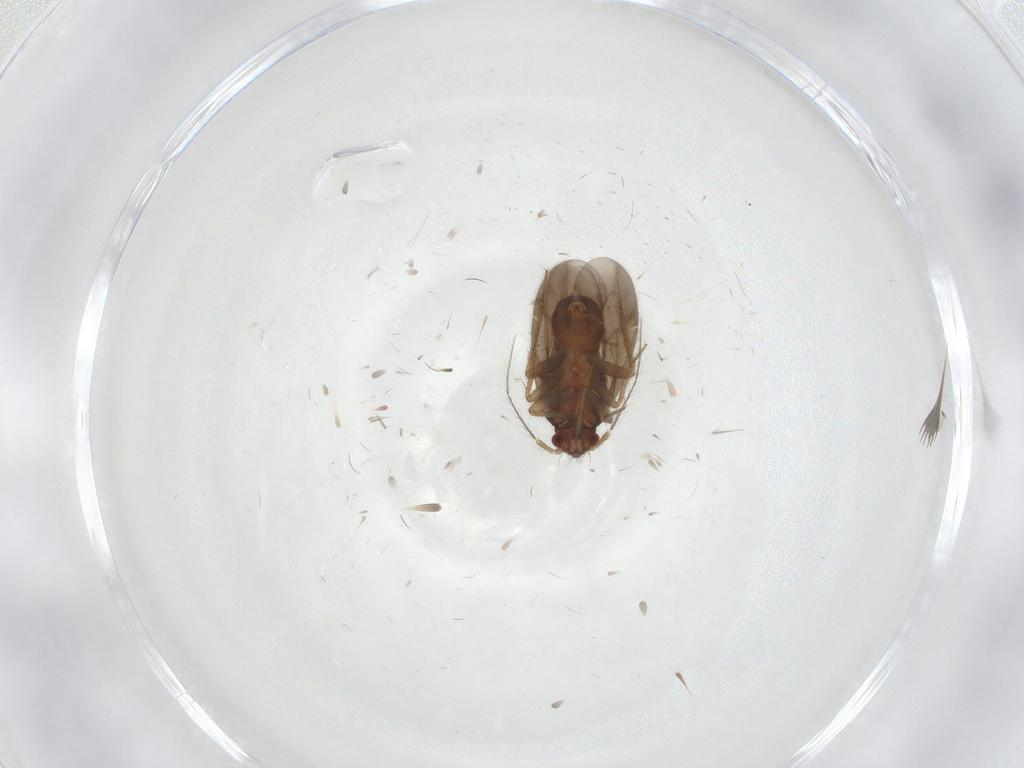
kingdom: Animalia
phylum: Arthropoda
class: Insecta
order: Hemiptera
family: Ceratocombidae
